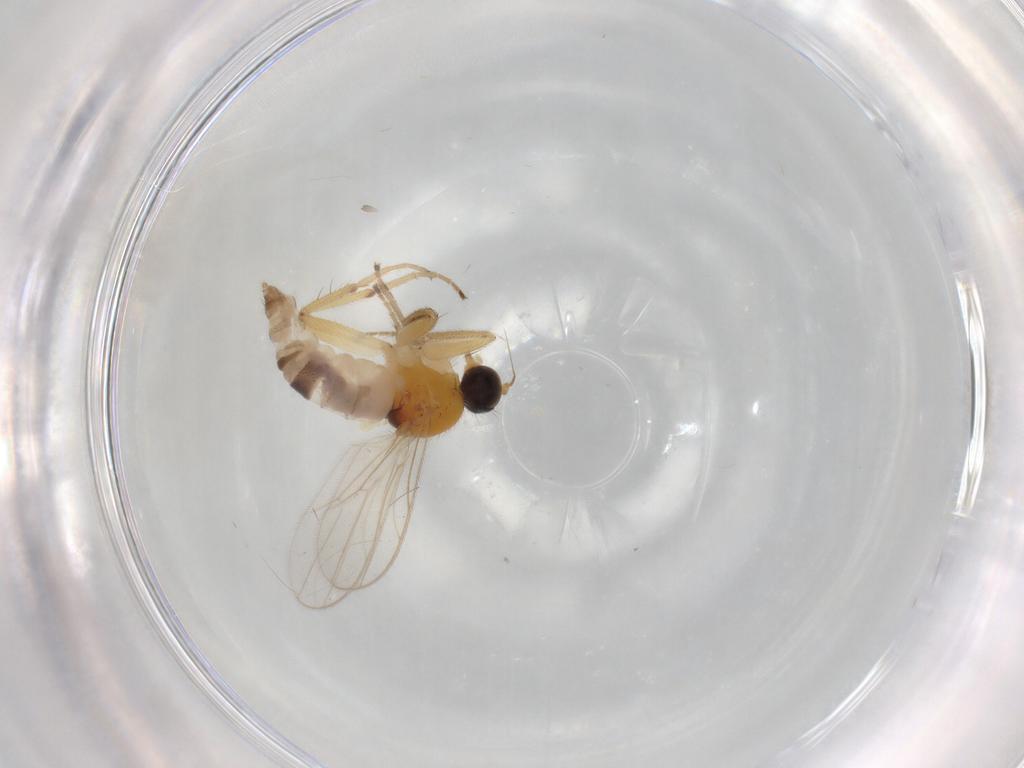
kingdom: Animalia
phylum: Arthropoda
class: Insecta
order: Diptera
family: Hybotidae
